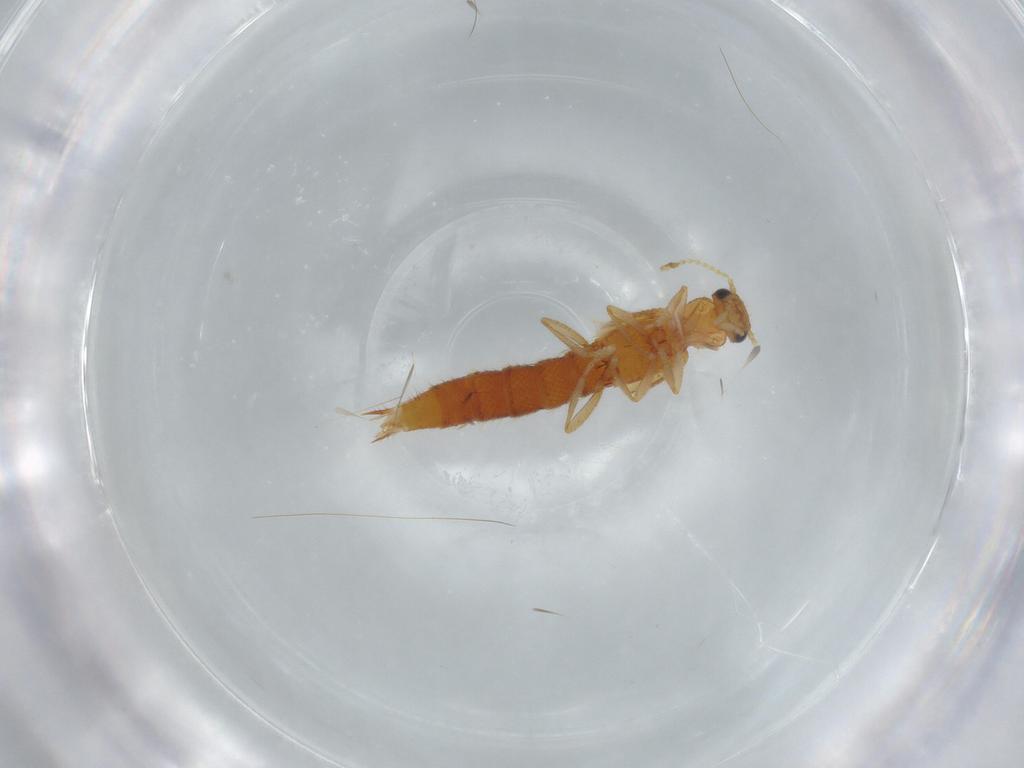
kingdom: Animalia
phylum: Arthropoda
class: Insecta
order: Coleoptera
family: Staphylinidae
